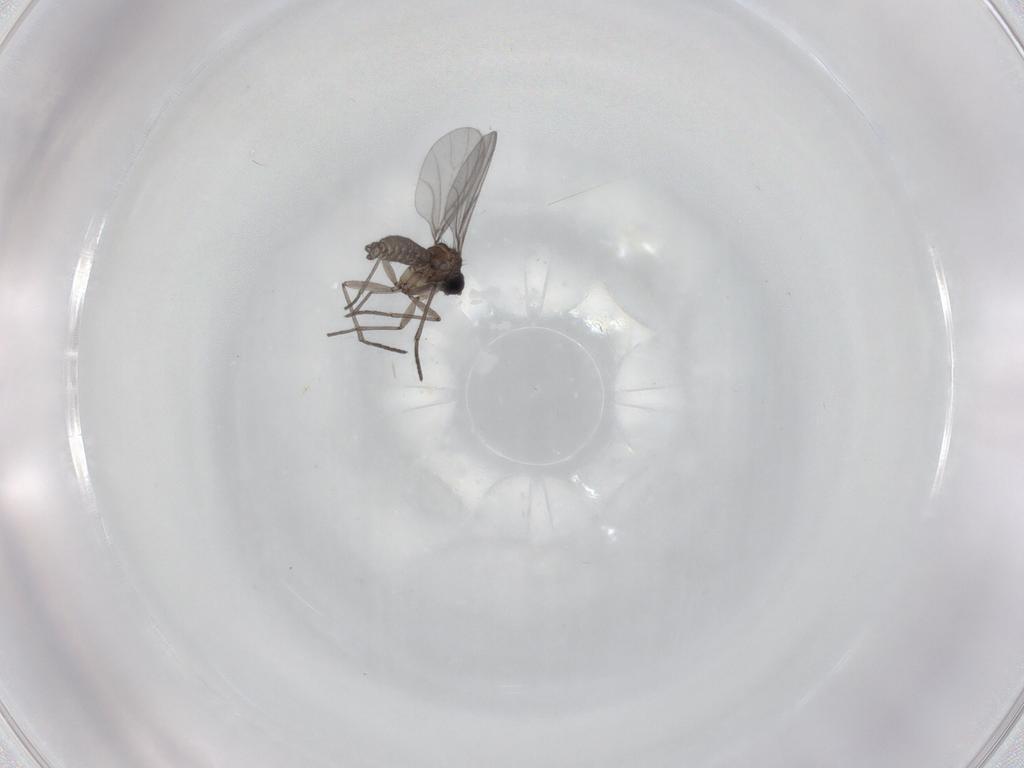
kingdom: Animalia
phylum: Arthropoda
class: Insecta
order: Diptera
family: Cecidomyiidae
